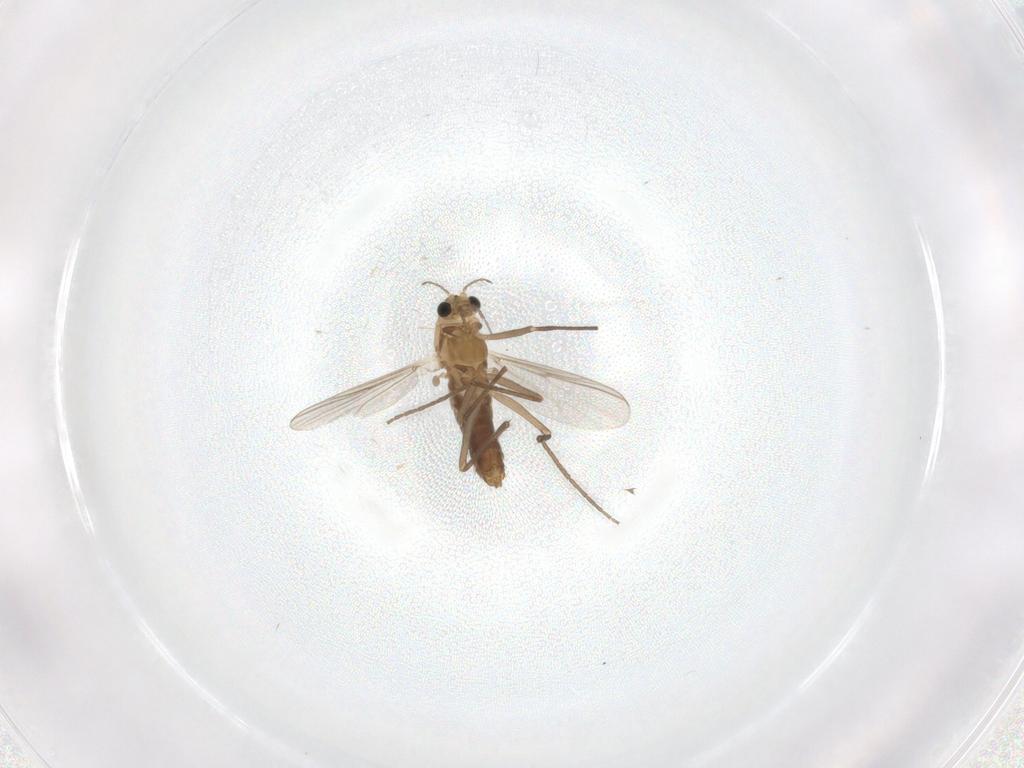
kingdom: Animalia
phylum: Arthropoda
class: Insecta
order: Diptera
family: Chironomidae
